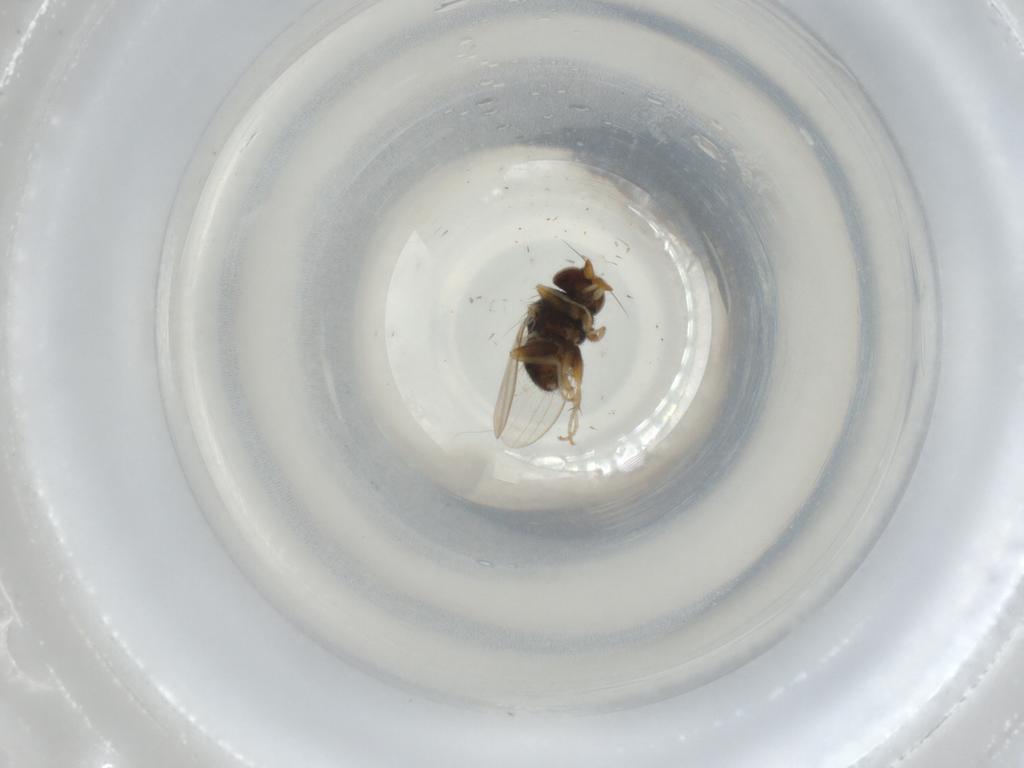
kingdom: Animalia
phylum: Arthropoda
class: Insecta
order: Diptera
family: Milichiidae
